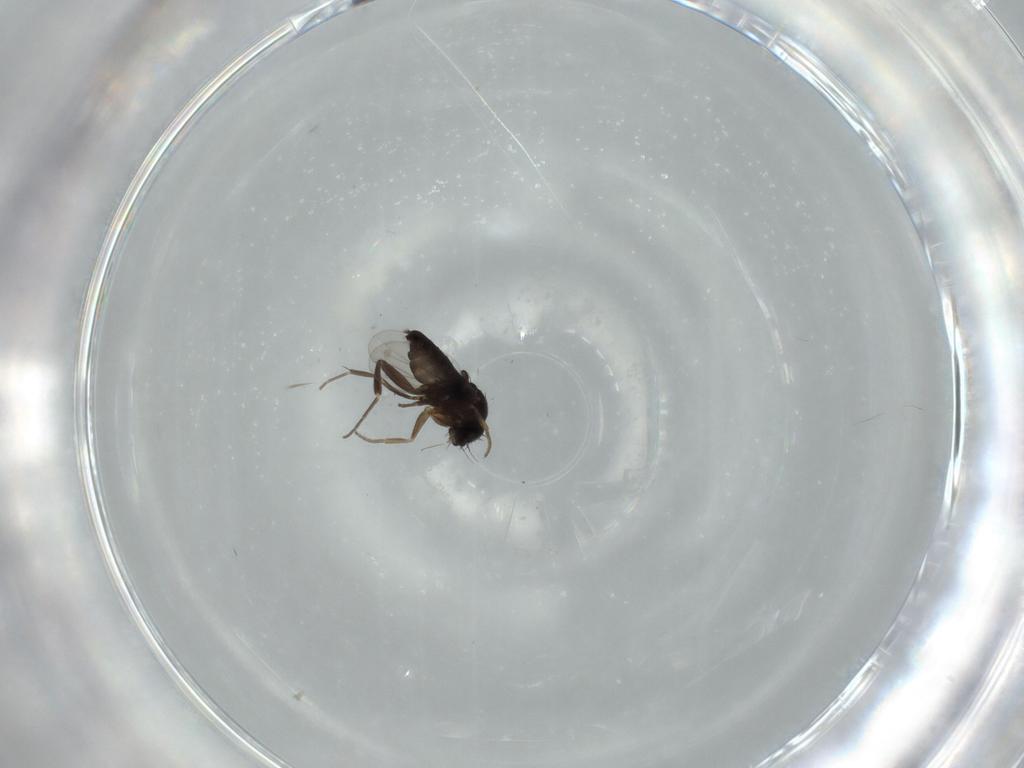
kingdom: Animalia
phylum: Arthropoda
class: Insecta
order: Diptera
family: Phoridae
